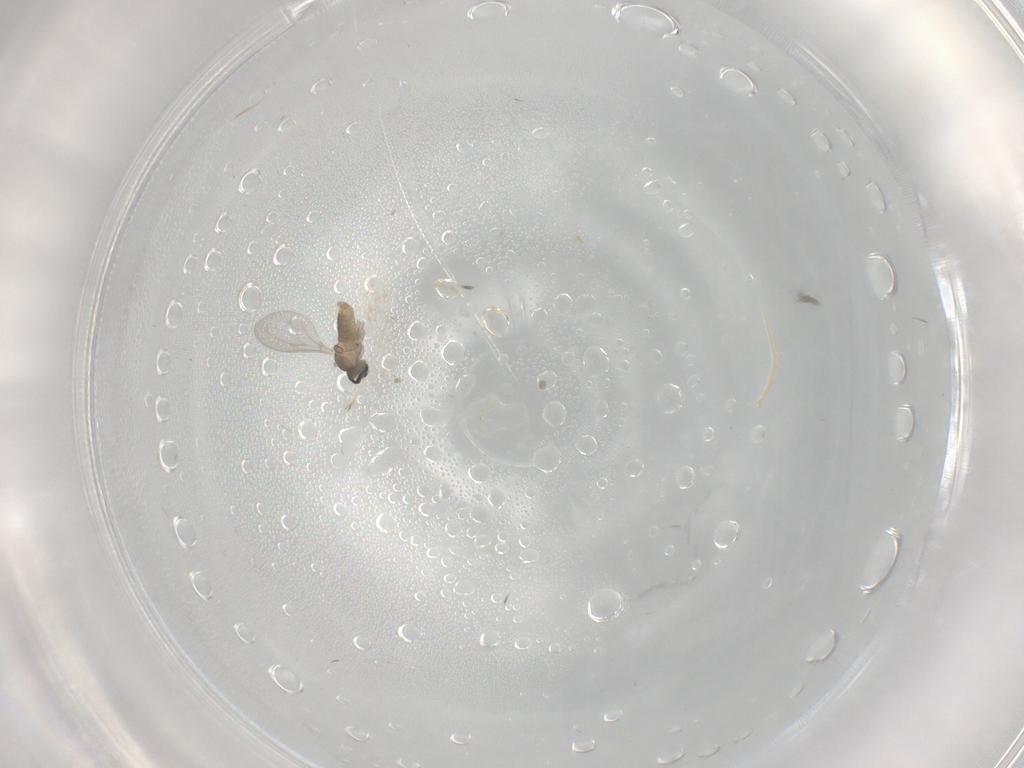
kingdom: Animalia
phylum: Arthropoda
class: Insecta
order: Diptera
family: Cecidomyiidae
